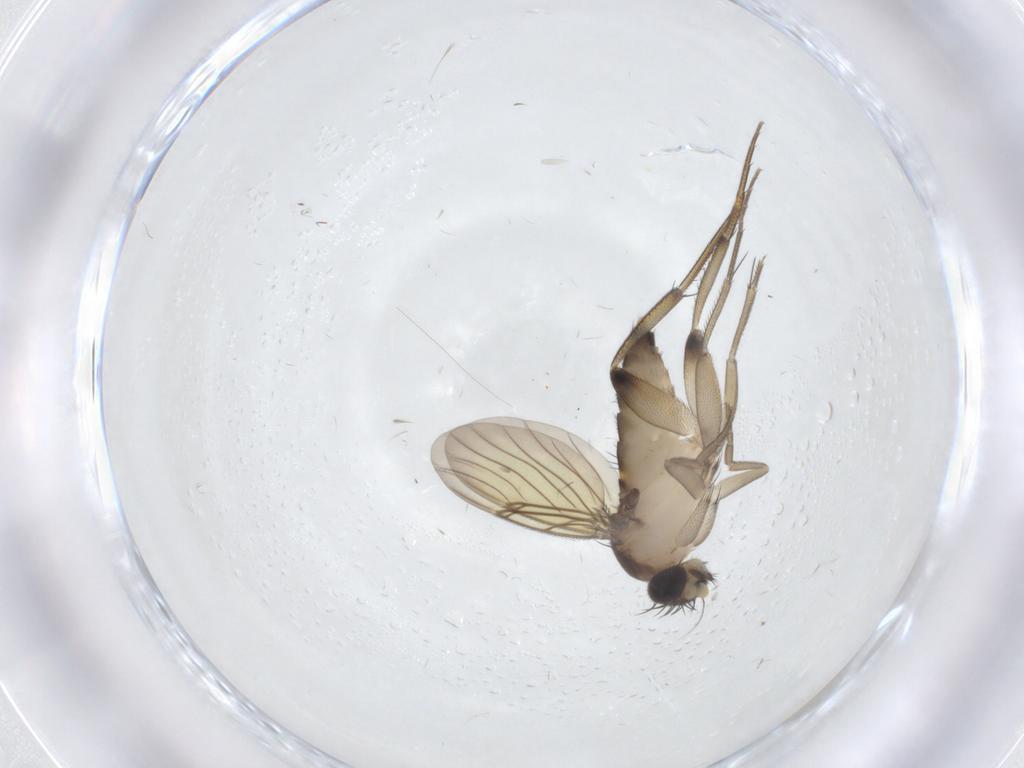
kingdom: Animalia
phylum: Arthropoda
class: Insecta
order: Diptera
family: Phoridae
